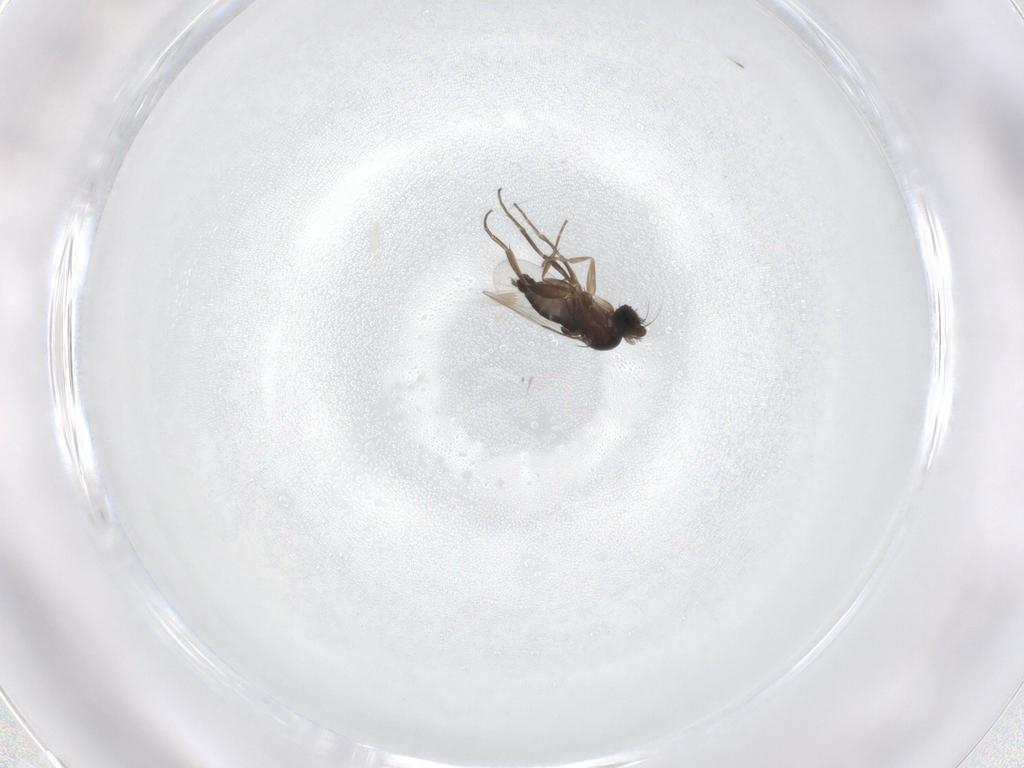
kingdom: Animalia
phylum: Arthropoda
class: Insecta
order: Diptera
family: Phoridae
